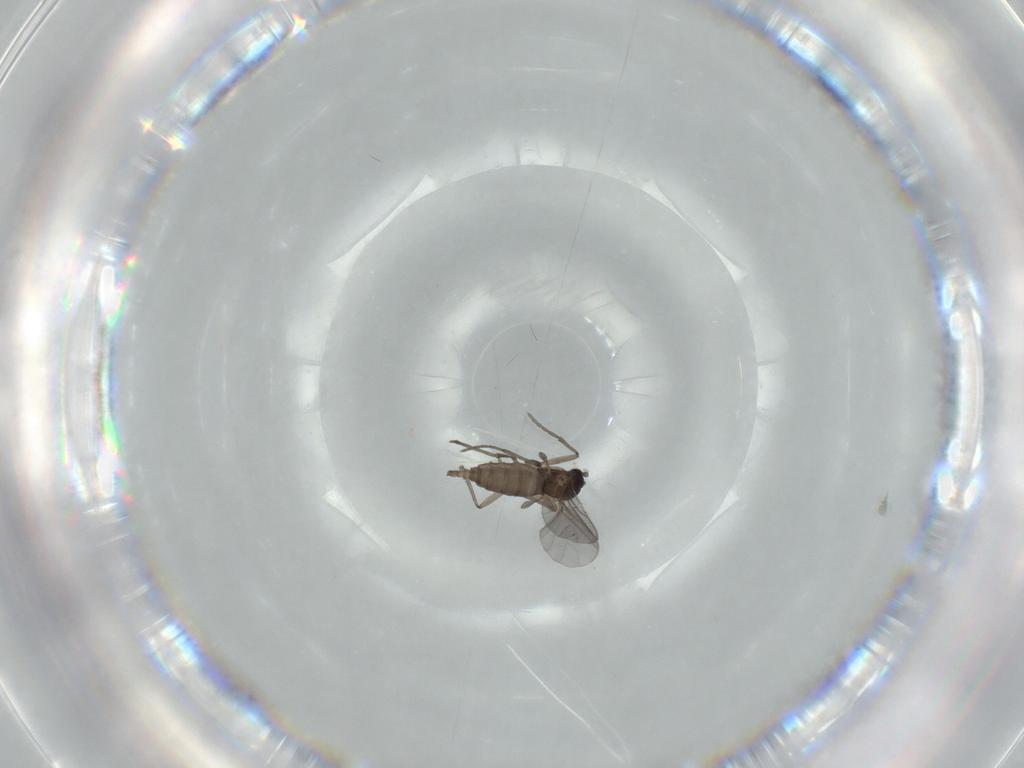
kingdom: Animalia
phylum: Arthropoda
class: Insecta
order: Diptera
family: Sciaridae
